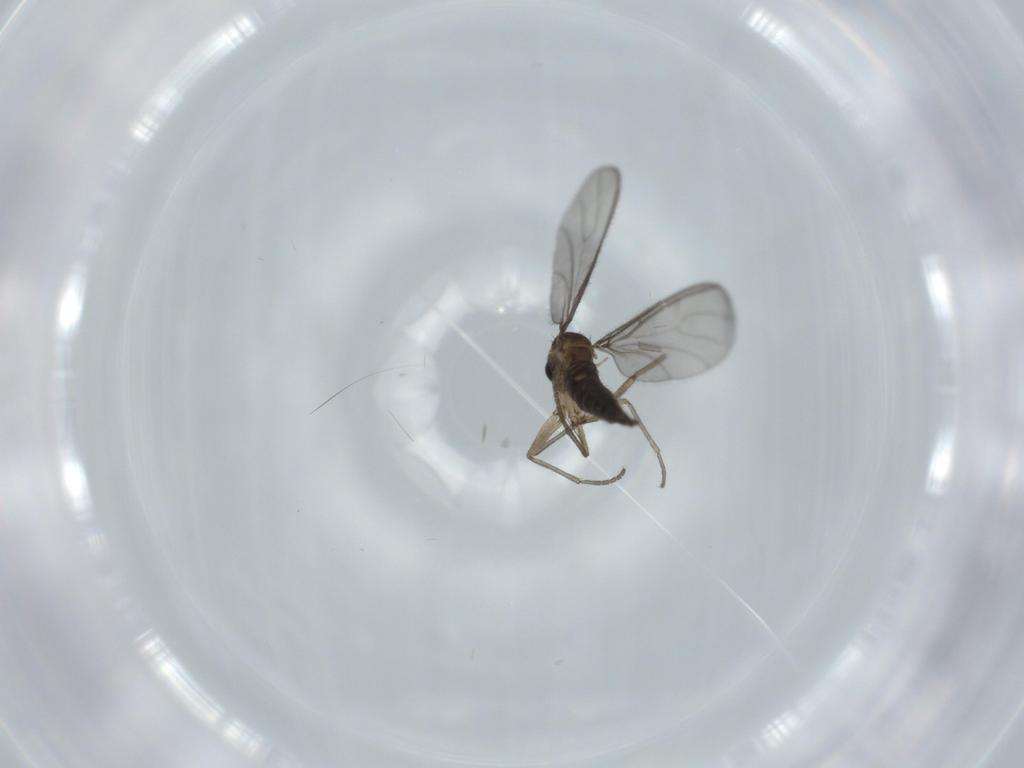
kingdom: Animalia
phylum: Arthropoda
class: Insecta
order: Diptera
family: Sciaridae
